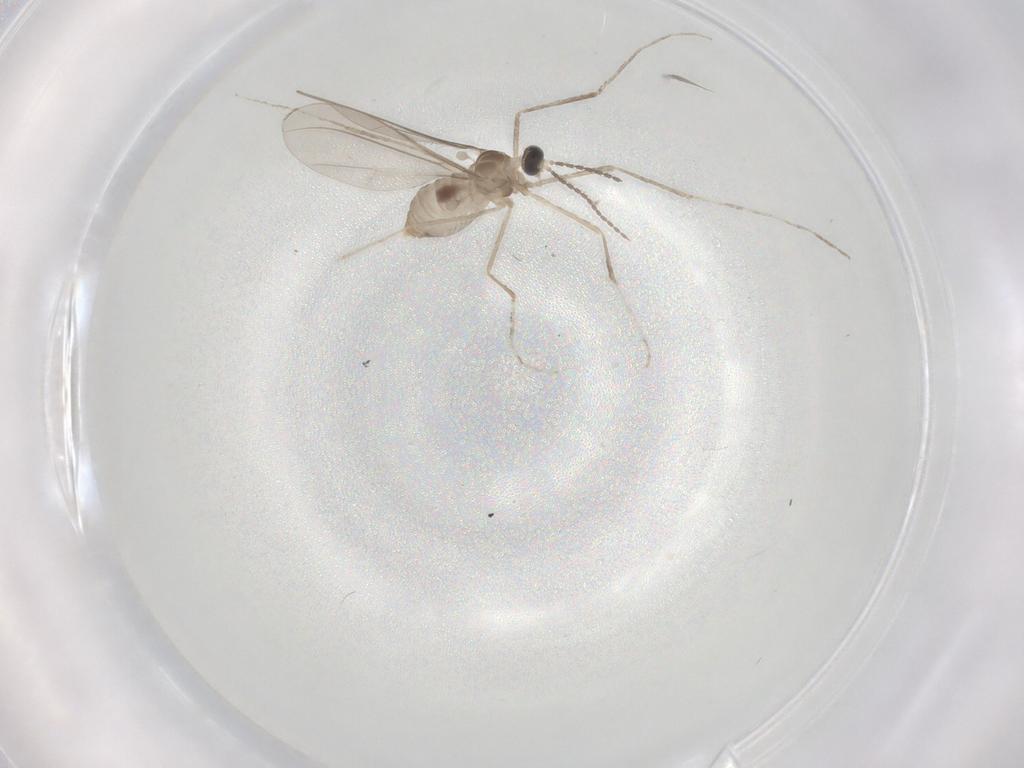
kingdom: Animalia
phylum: Arthropoda
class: Insecta
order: Diptera
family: Cecidomyiidae
